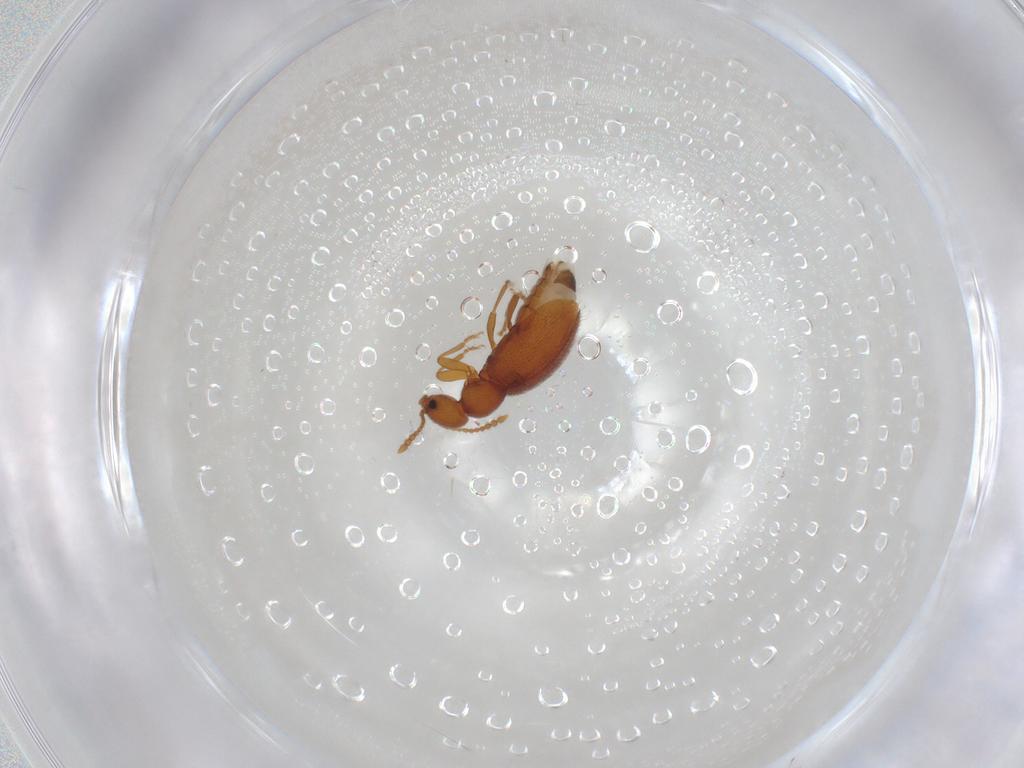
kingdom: Animalia
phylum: Arthropoda
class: Insecta
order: Coleoptera
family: Anthicidae
